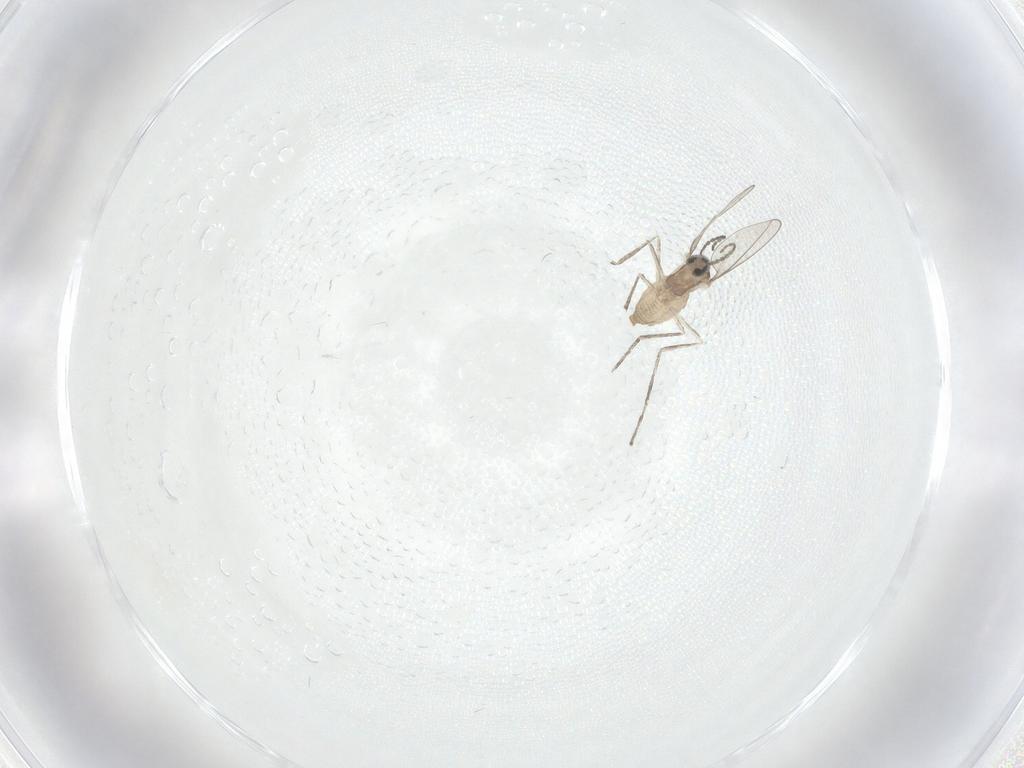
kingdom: Animalia
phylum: Arthropoda
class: Insecta
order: Diptera
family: Cecidomyiidae
